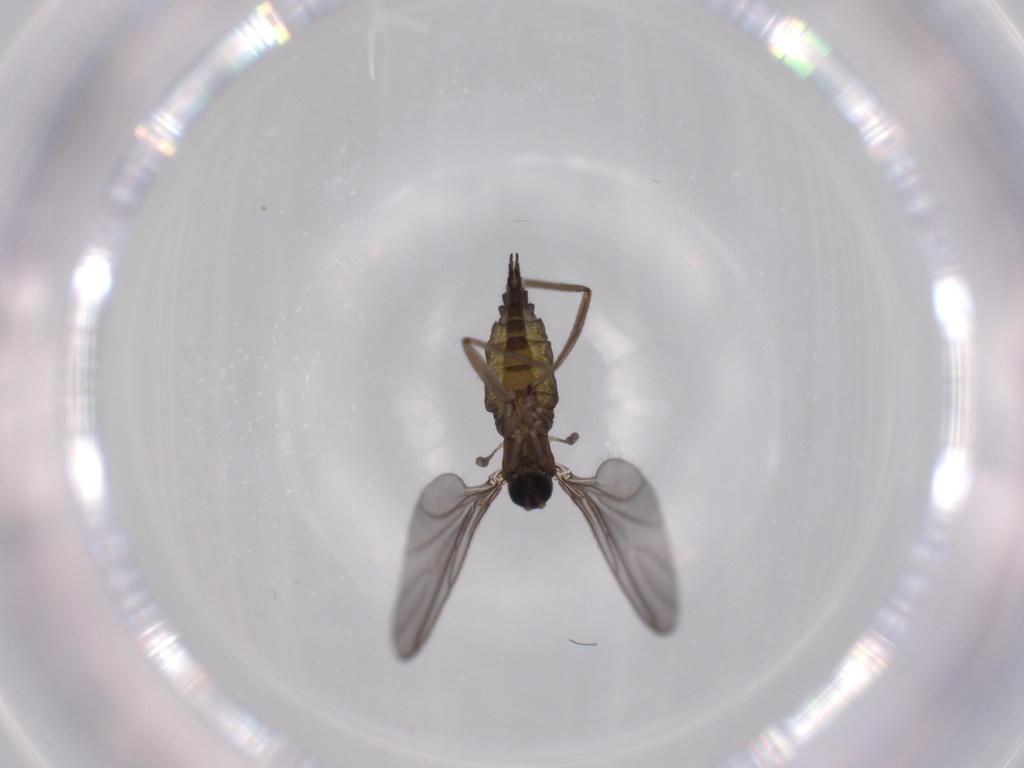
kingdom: Animalia
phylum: Arthropoda
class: Insecta
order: Diptera
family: Sciaridae
